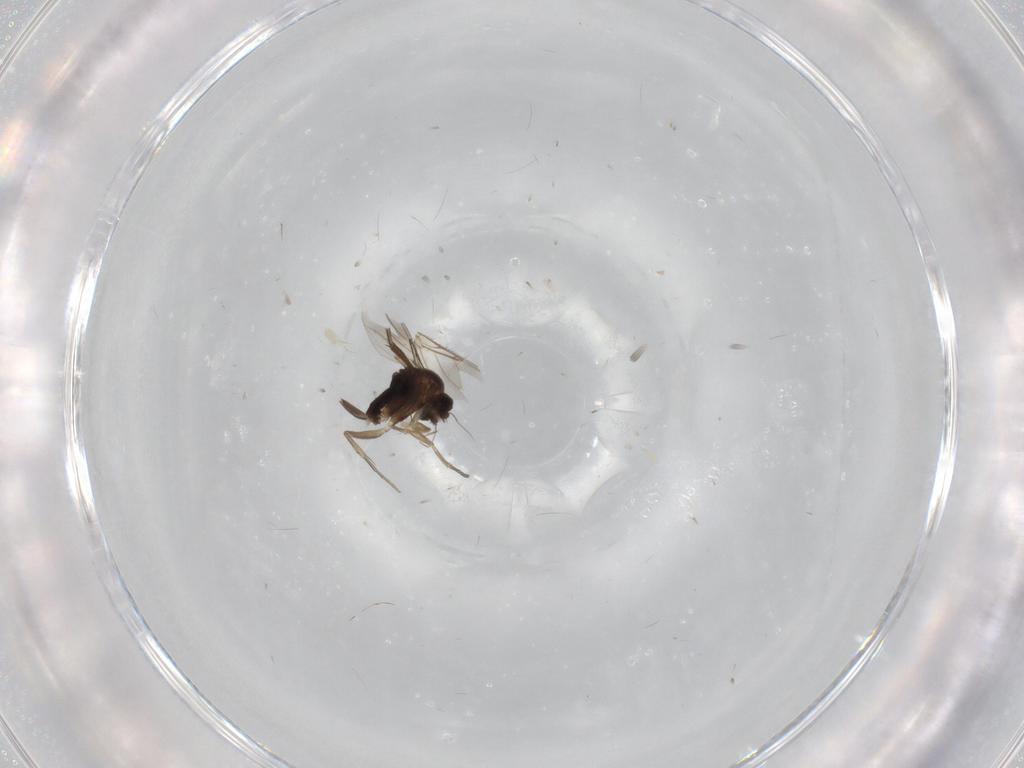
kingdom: Animalia
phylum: Arthropoda
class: Insecta
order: Diptera
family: Phoridae
